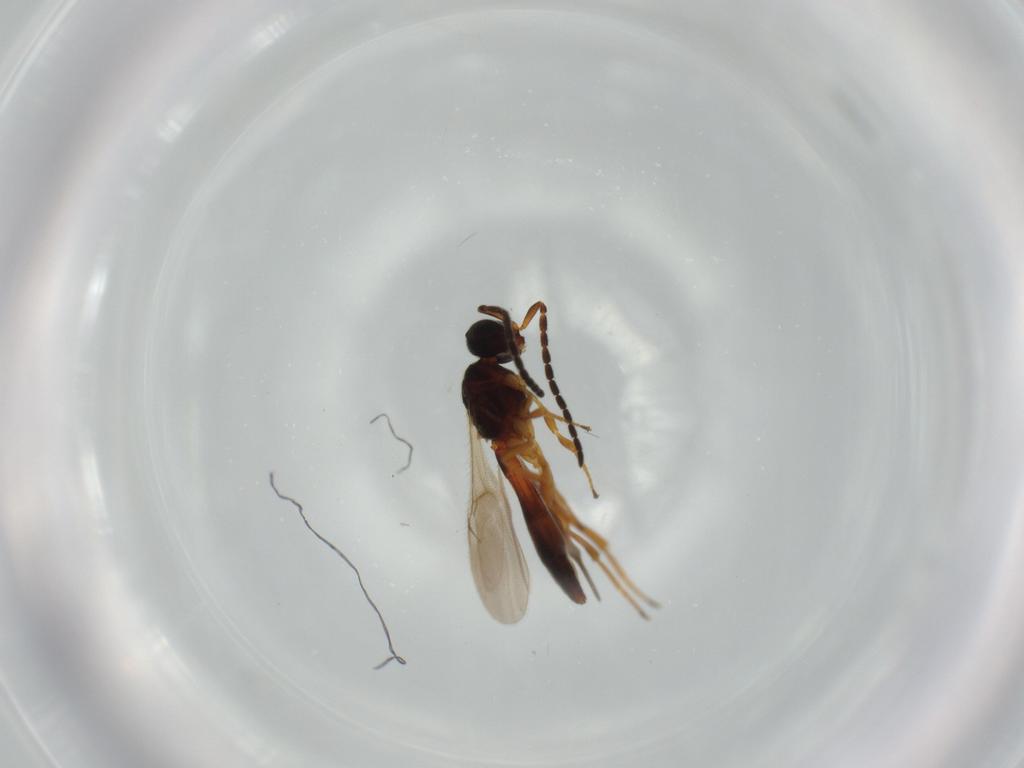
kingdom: Animalia
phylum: Arthropoda
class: Insecta
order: Hymenoptera
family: Scelionidae
